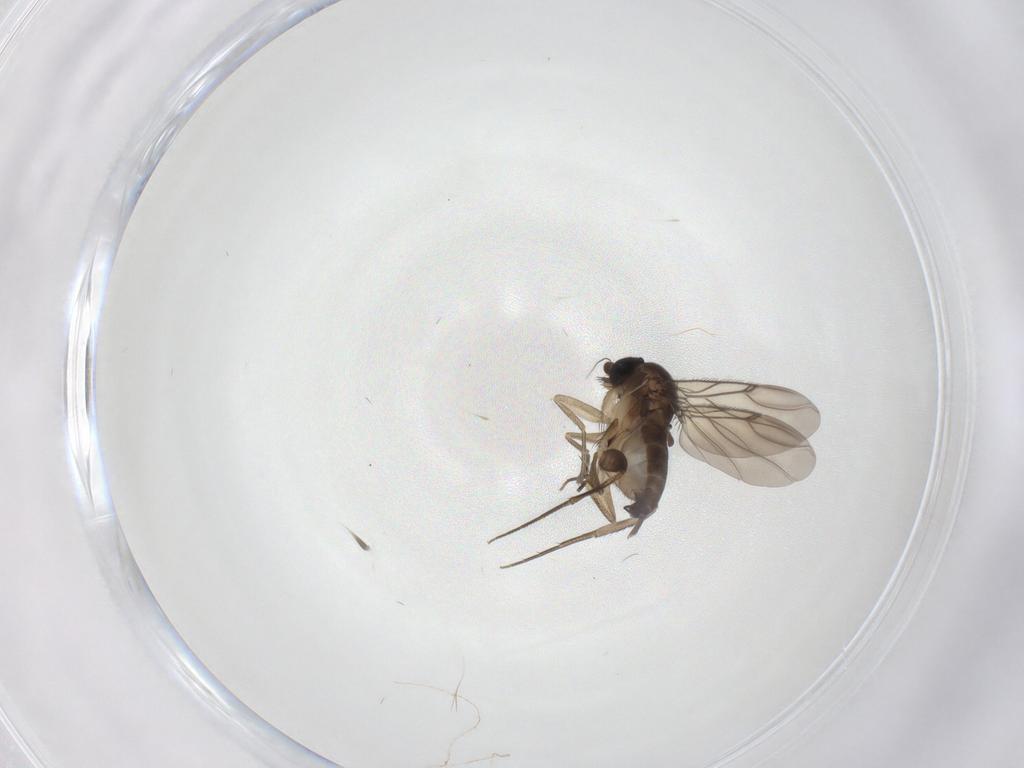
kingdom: Animalia
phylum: Arthropoda
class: Insecta
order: Diptera
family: Phoridae
